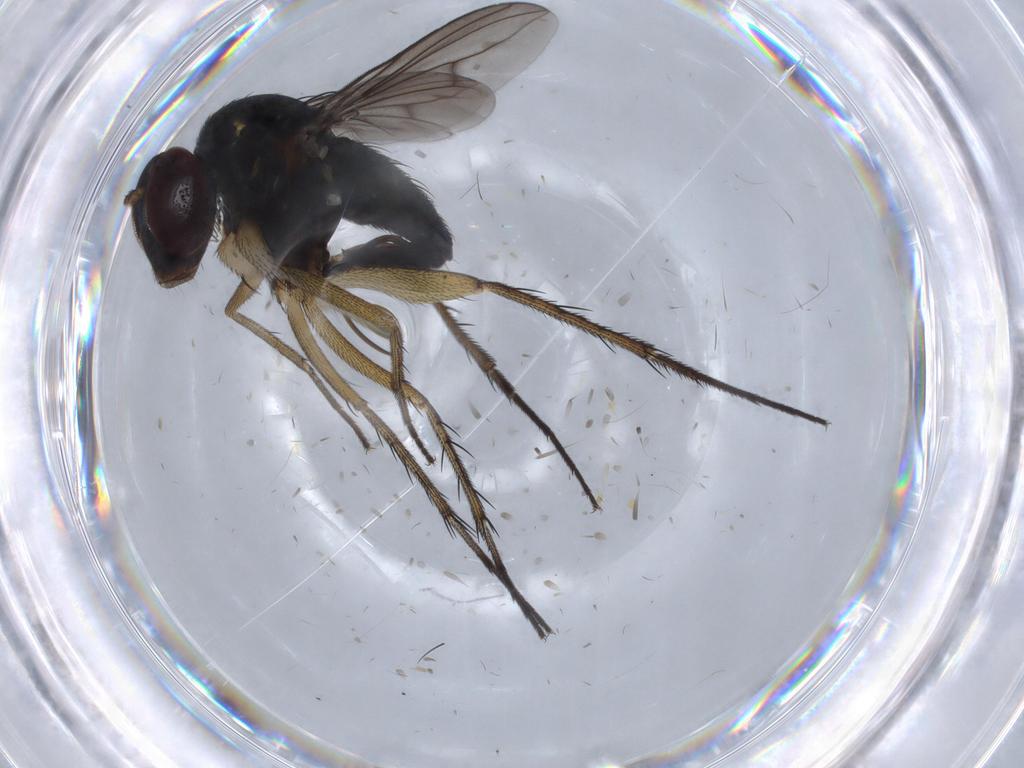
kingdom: Animalia
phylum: Arthropoda
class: Insecta
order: Diptera
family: Dolichopodidae
